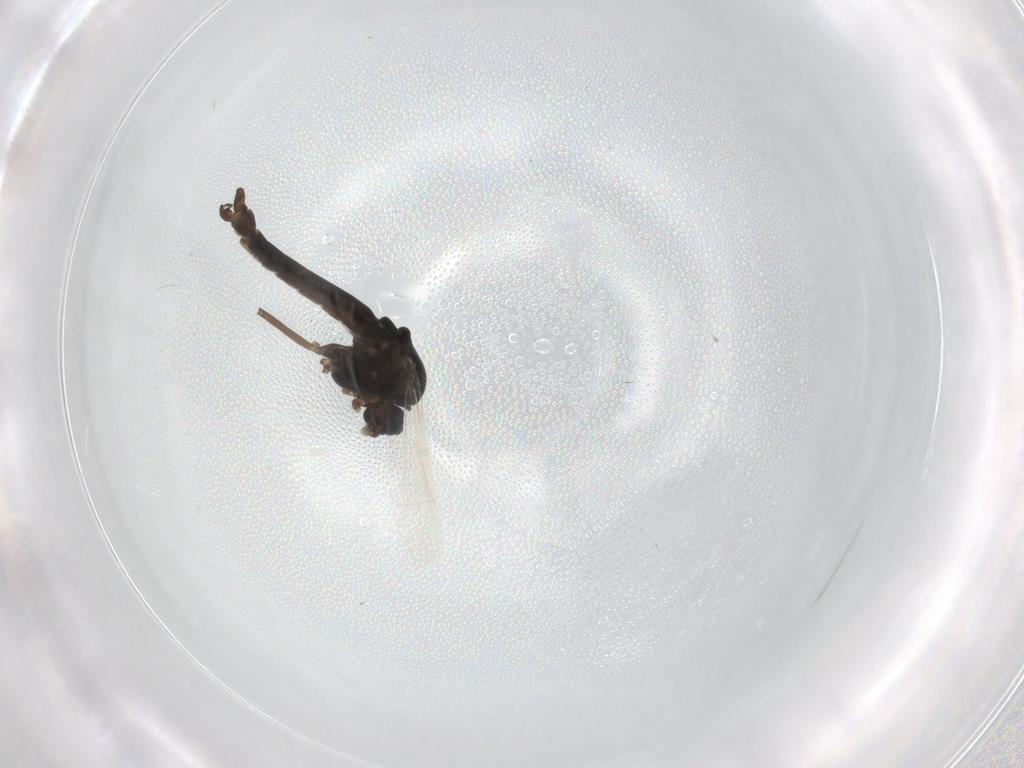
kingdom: Animalia
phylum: Arthropoda
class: Insecta
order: Diptera
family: Chironomidae
